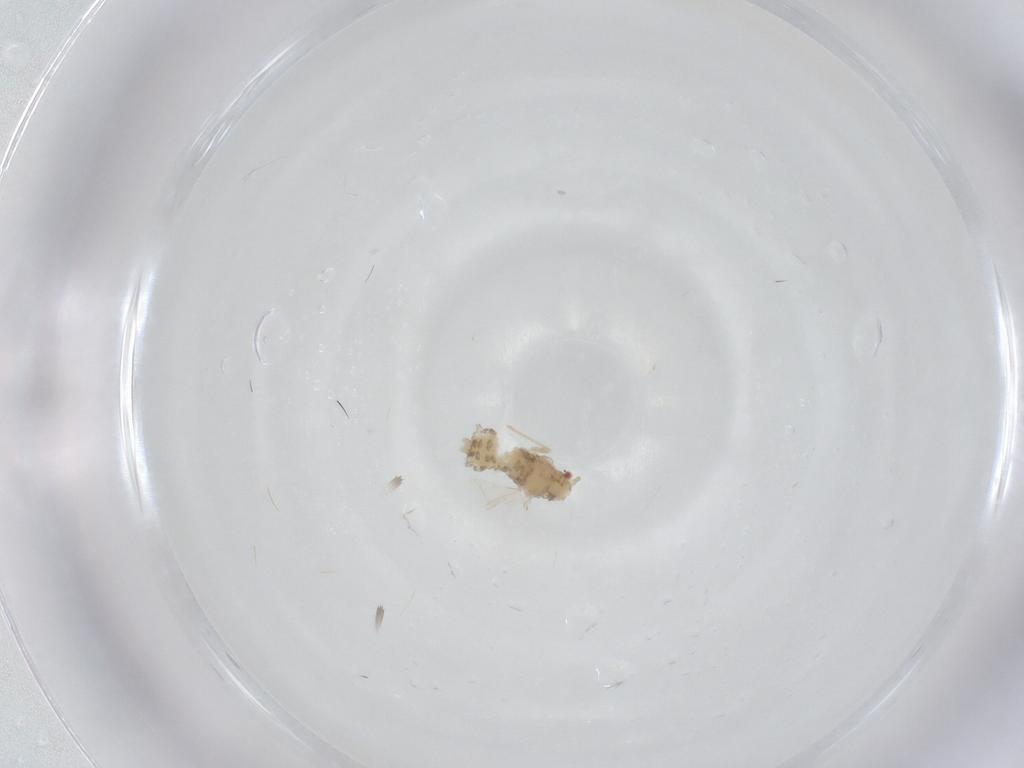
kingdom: Animalia
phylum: Arthropoda
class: Insecta
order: Hemiptera
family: Aphididae
